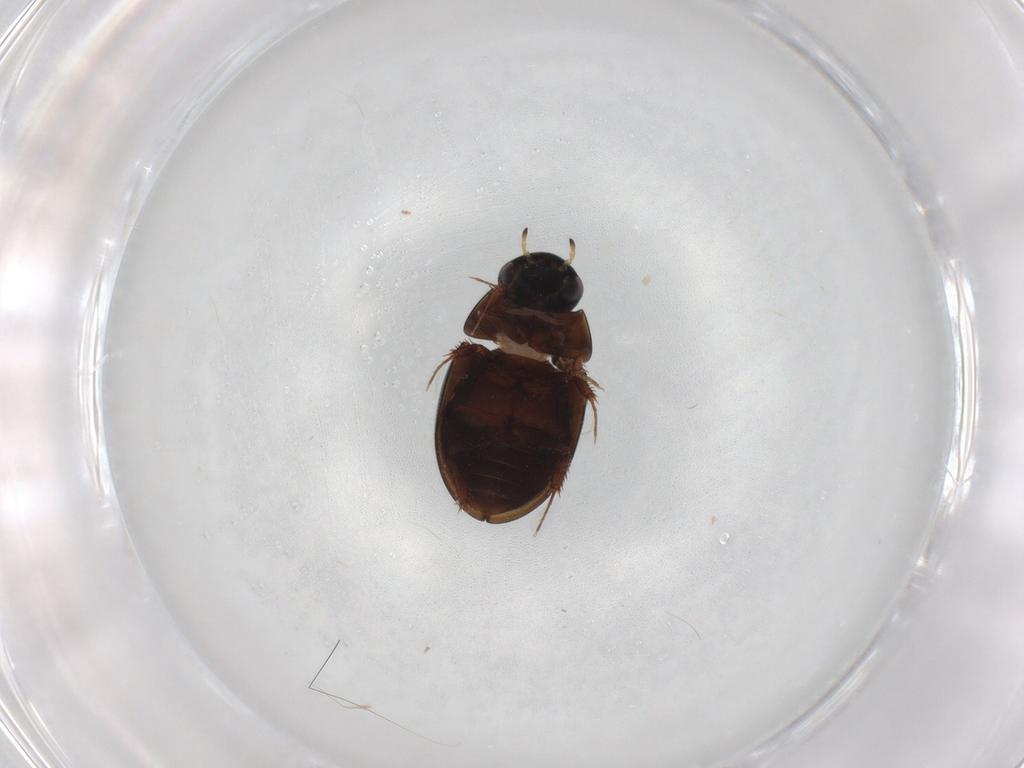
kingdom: Animalia
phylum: Arthropoda
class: Insecta
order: Coleoptera
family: Hydrophilidae
